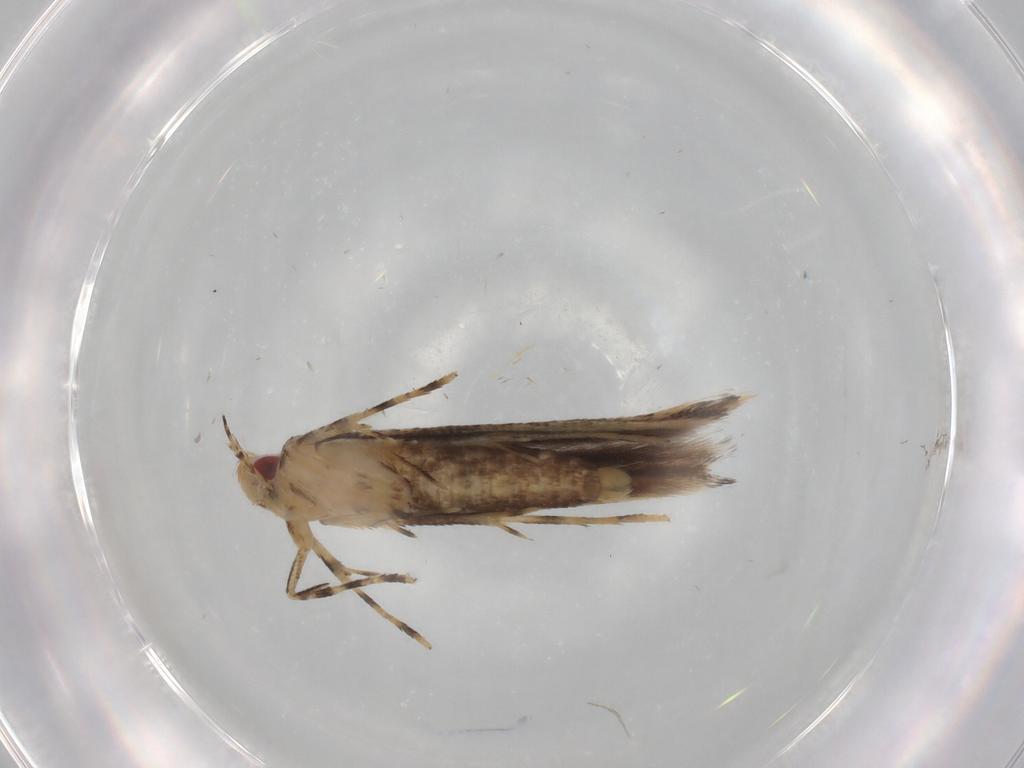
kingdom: Animalia
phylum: Arthropoda
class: Insecta
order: Lepidoptera
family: Cosmopterigidae
